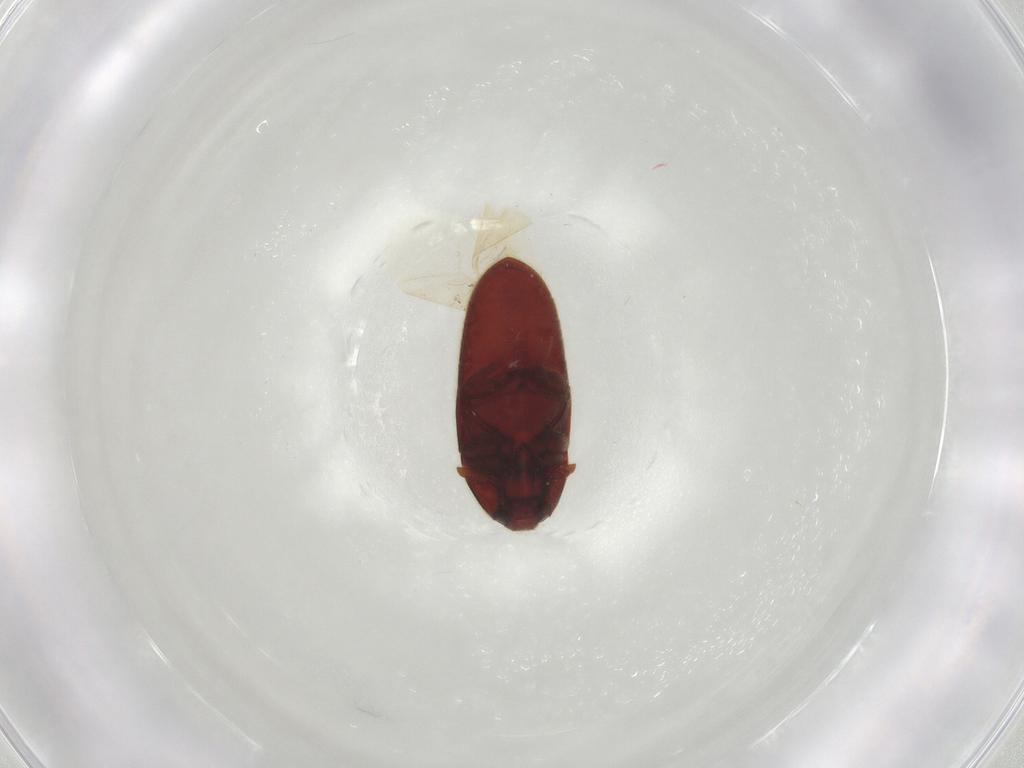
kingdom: Animalia
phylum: Arthropoda
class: Insecta
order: Coleoptera
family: Throscidae
